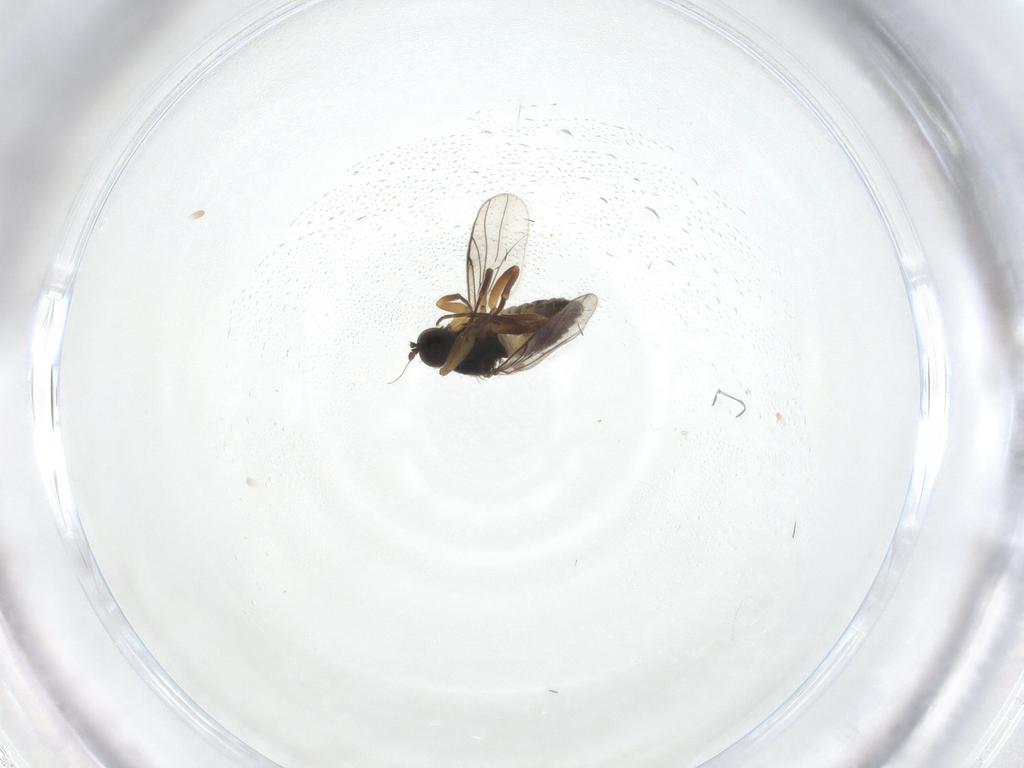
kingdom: Animalia
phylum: Arthropoda
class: Insecta
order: Diptera
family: Hybotidae
